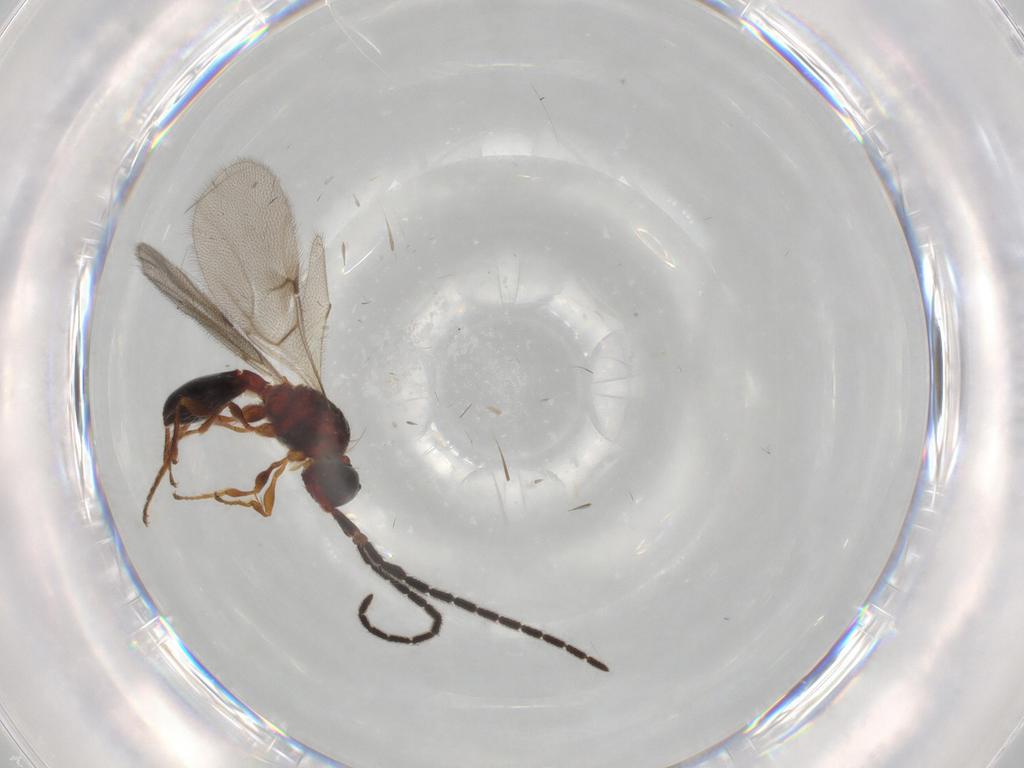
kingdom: Animalia
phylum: Arthropoda
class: Insecta
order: Hymenoptera
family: Diapriidae
